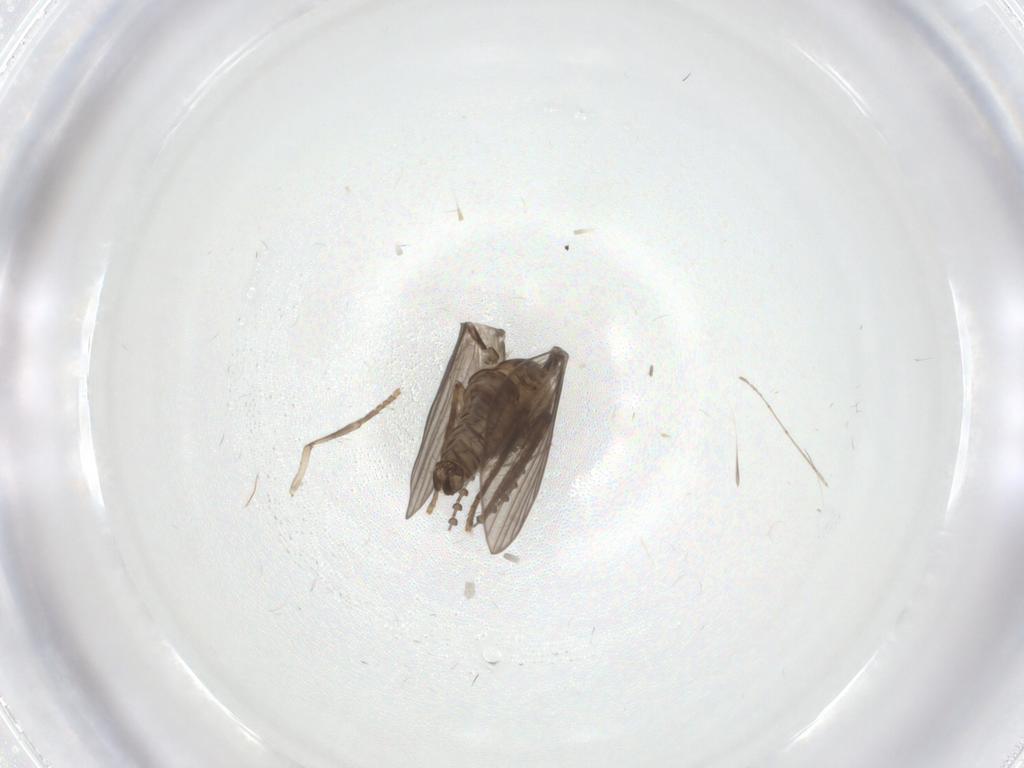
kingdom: Animalia
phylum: Arthropoda
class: Insecta
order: Diptera
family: Psychodidae
